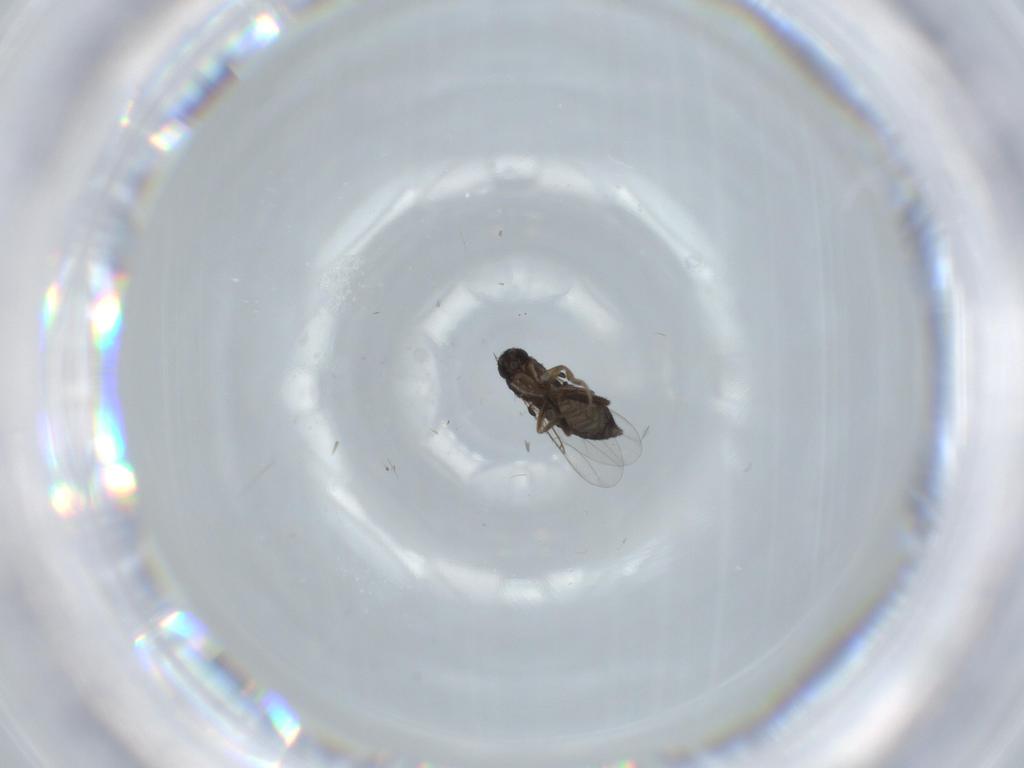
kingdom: Animalia
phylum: Arthropoda
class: Insecta
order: Diptera
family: Phoridae
